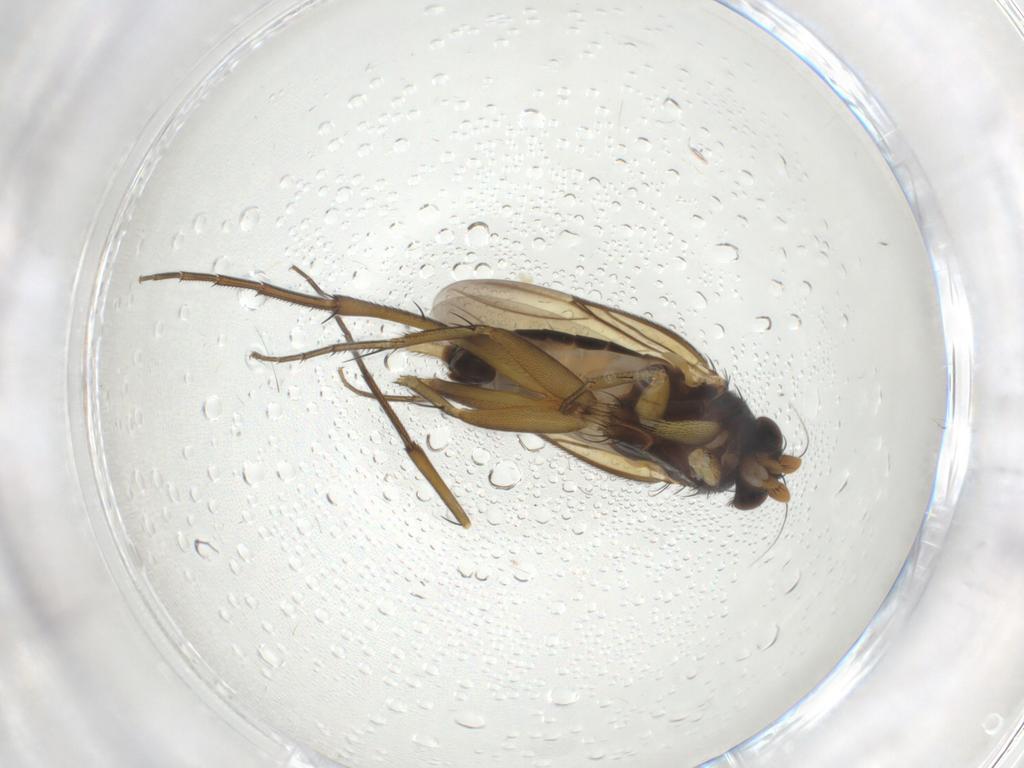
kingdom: Animalia
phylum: Arthropoda
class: Insecta
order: Diptera
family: Phoridae
